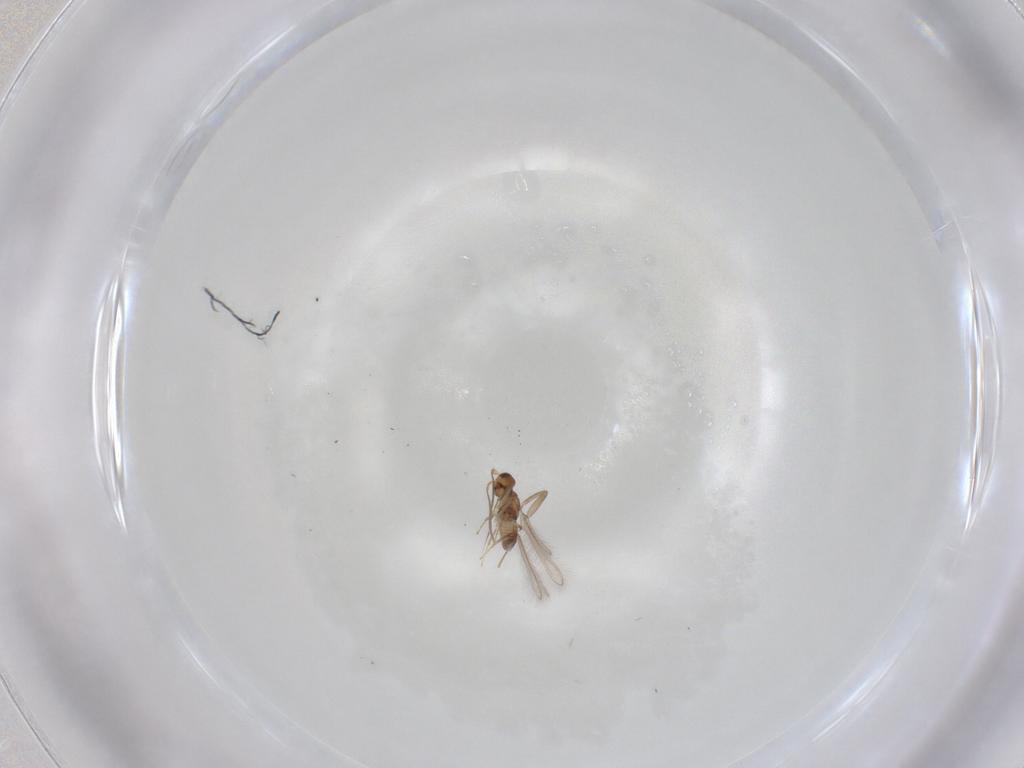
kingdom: Animalia
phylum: Arthropoda
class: Insecta
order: Hymenoptera
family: Mymaridae
